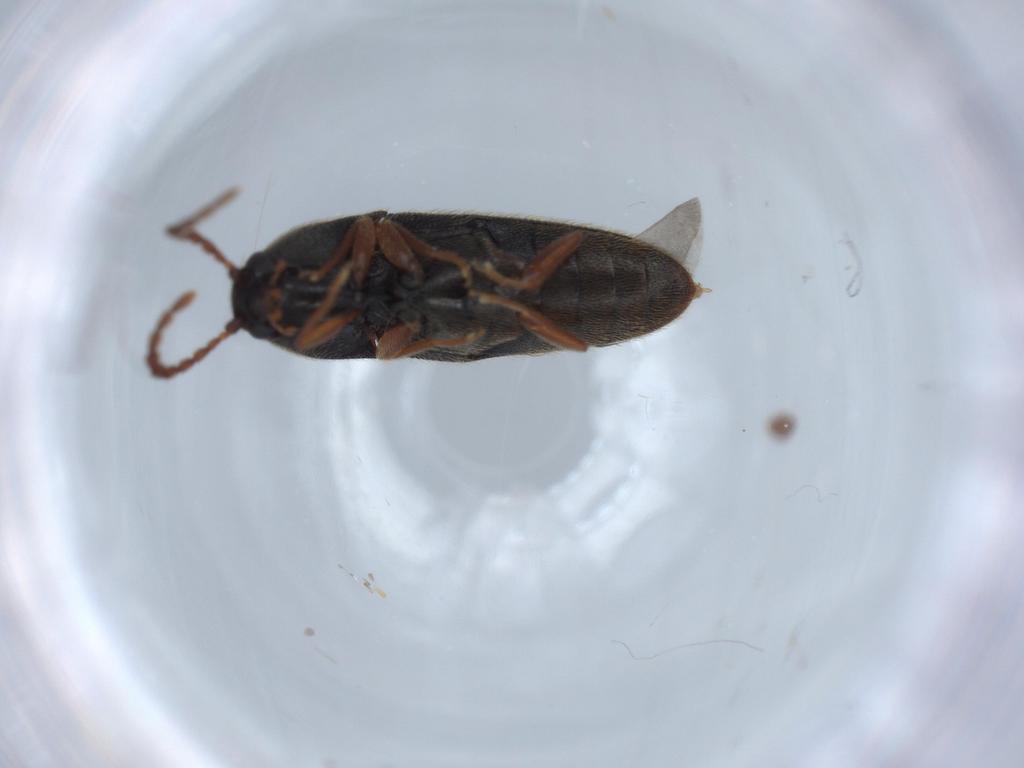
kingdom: Animalia
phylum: Arthropoda
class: Insecta
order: Coleoptera
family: Elateridae
